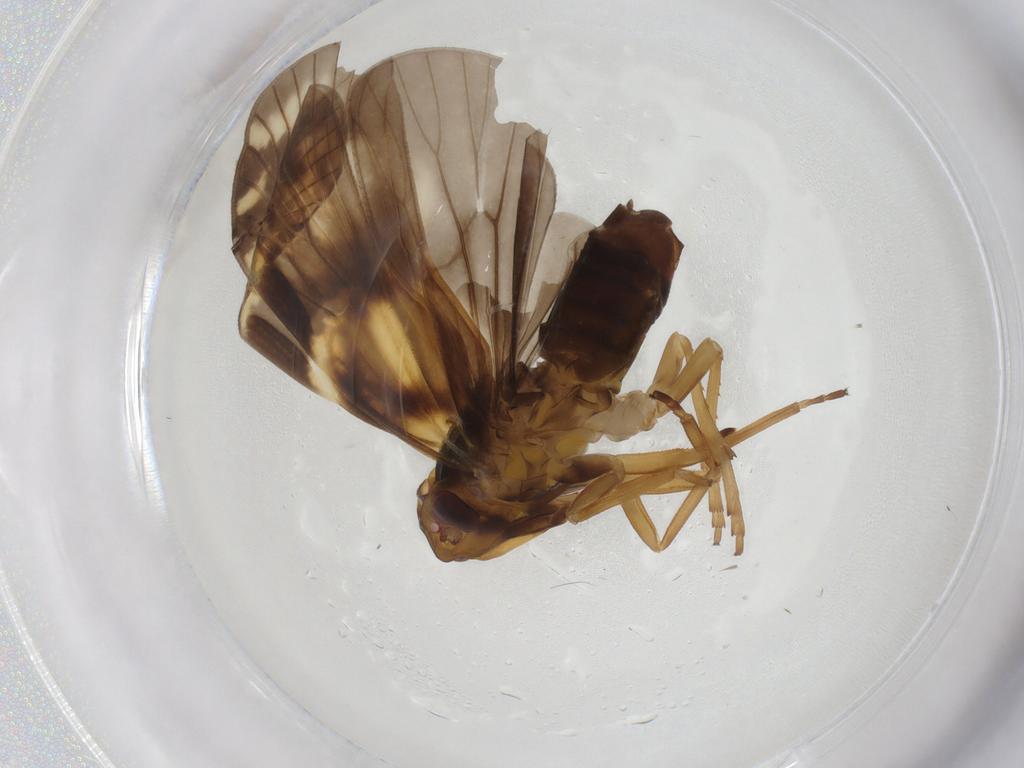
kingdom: Animalia
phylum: Arthropoda
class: Insecta
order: Hemiptera
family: Cixiidae
